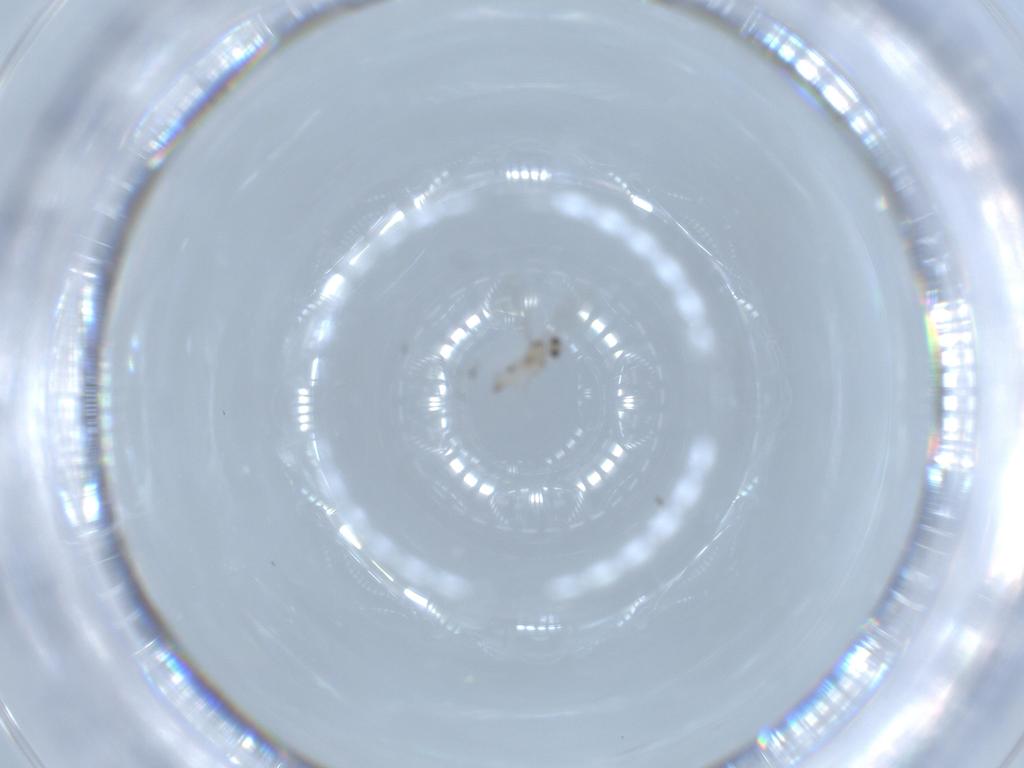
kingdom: Animalia
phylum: Arthropoda
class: Insecta
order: Diptera
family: Cecidomyiidae
